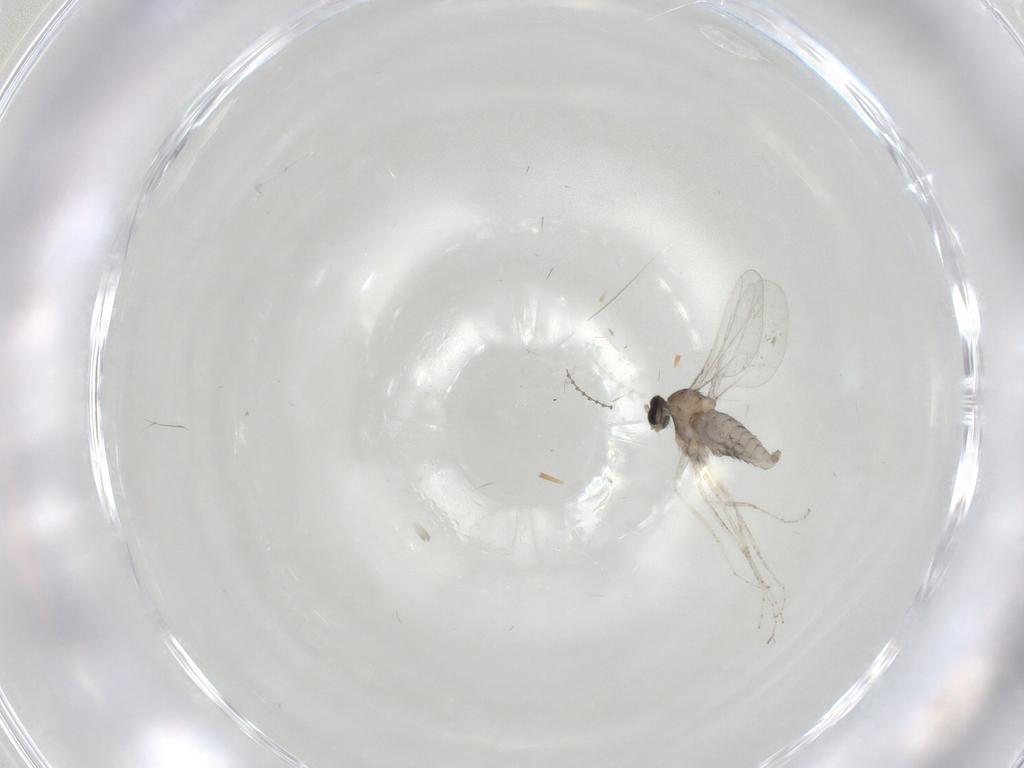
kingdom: Animalia
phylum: Arthropoda
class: Insecta
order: Diptera
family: Cecidomyiidae
